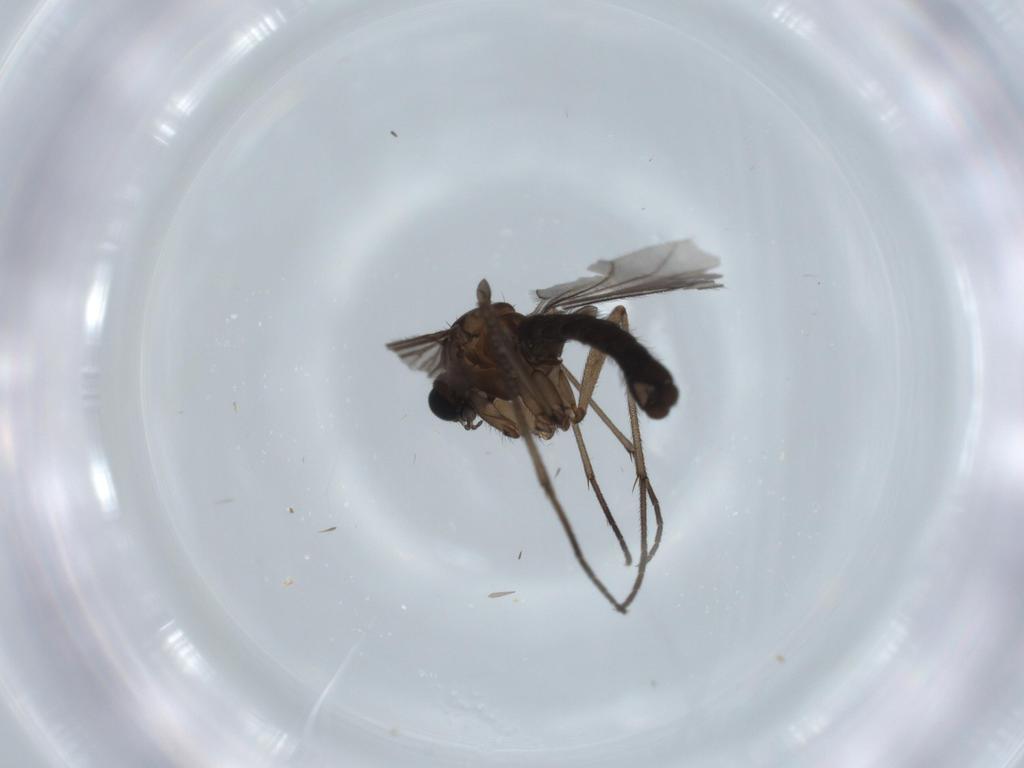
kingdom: Animalia
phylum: Arthropoda
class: Insecta
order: Diptera
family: Sciaridae
